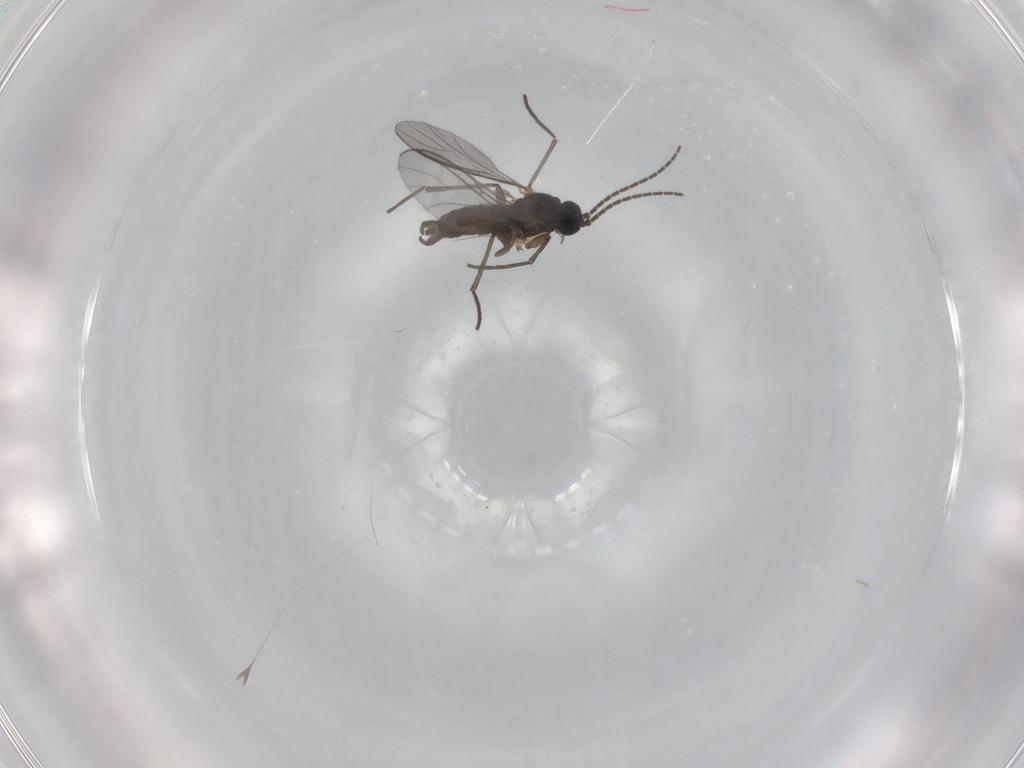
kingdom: Animalia
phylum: Arthropoda
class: Insecta
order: Diptera
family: Sciaridae
